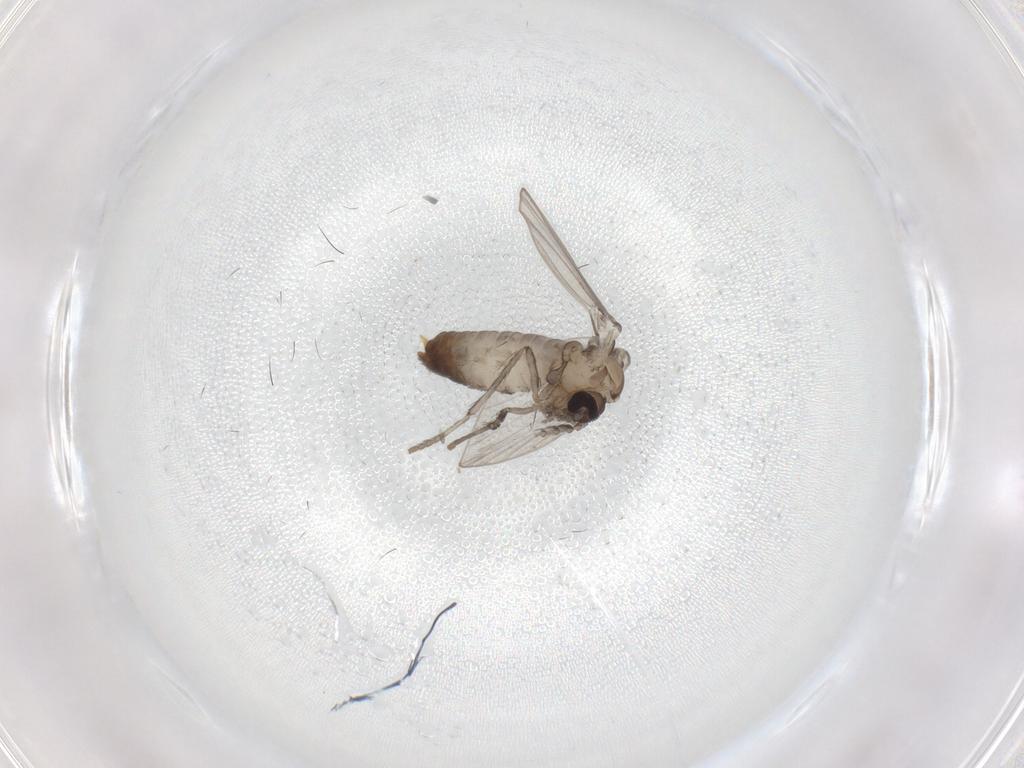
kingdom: Animalia
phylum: Arthropoda
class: Insecta
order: Diptera
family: Psychodidae
